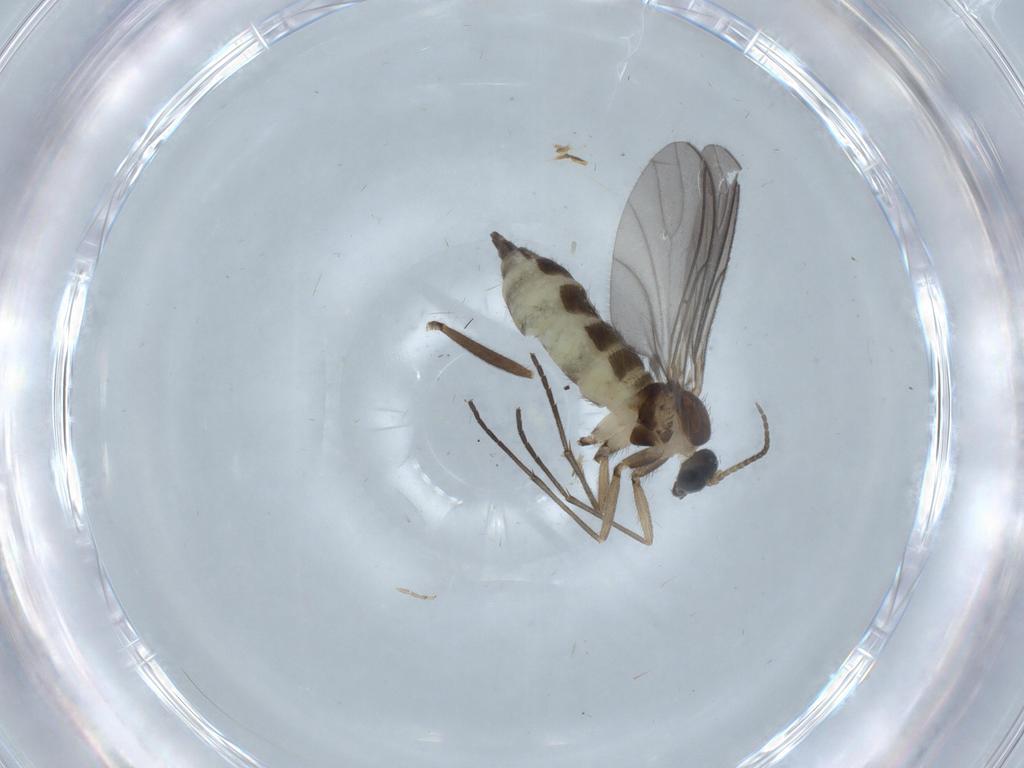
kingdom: Animalia
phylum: Arthropoda
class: Insecta
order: Diptera
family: Sciaridae
